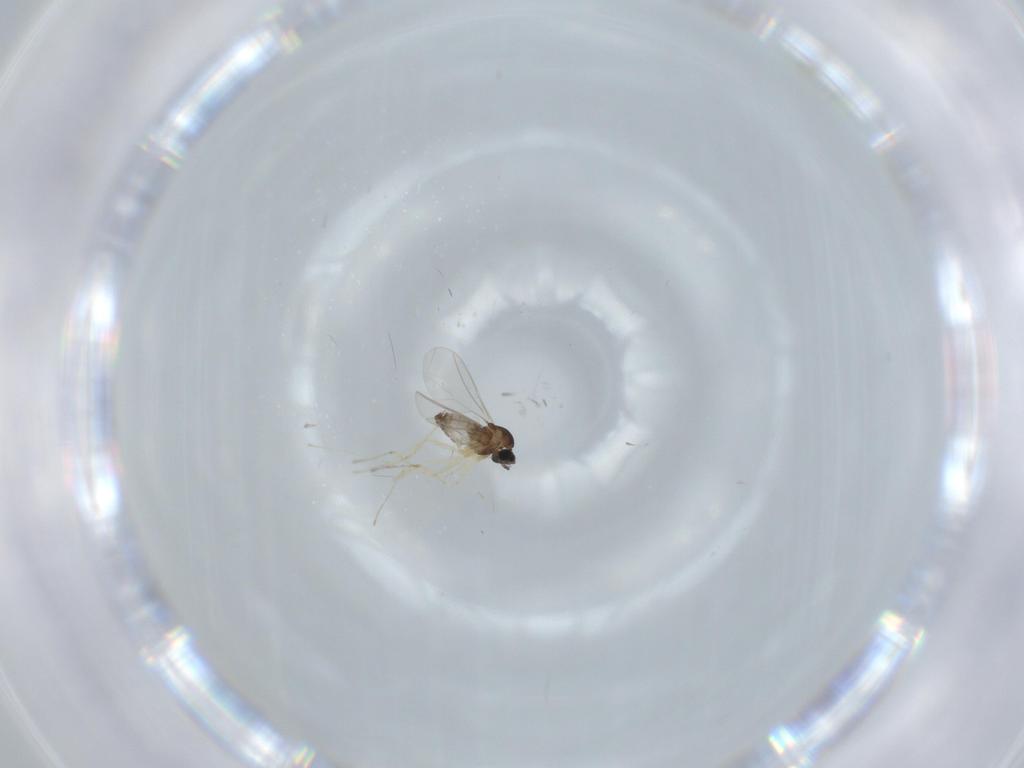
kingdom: Animalia
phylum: Arthropoda
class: Insecta
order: Diptera
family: Cecidomyiidae
